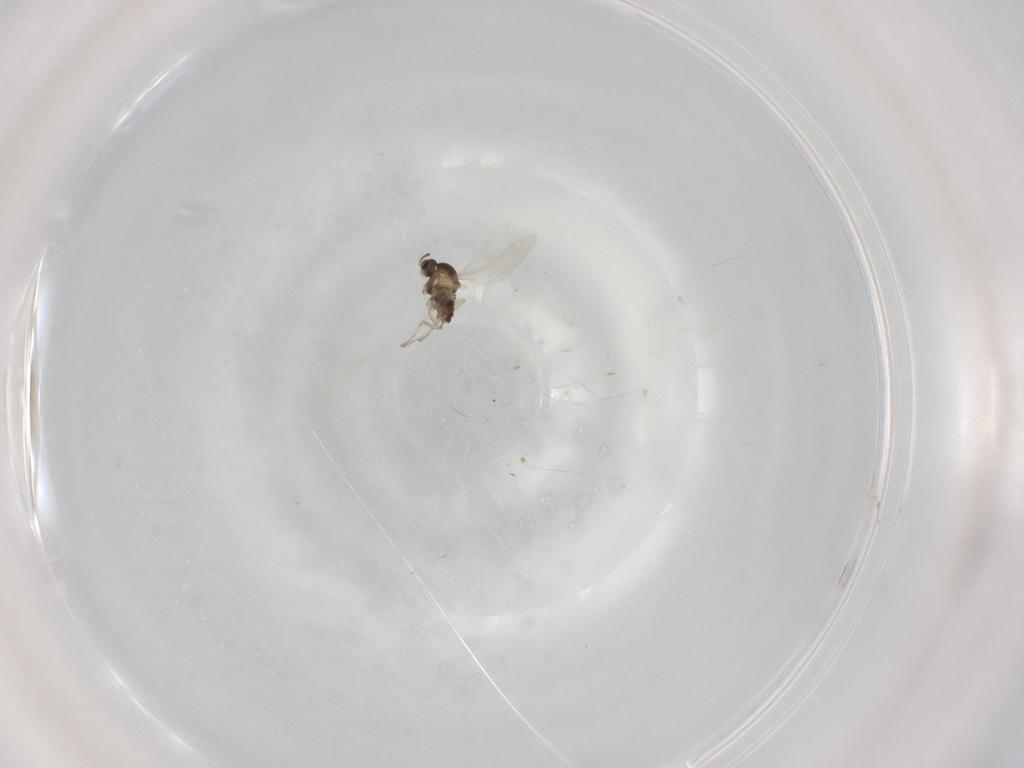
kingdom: Animalia
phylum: Arthropoda
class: Insecta
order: Diptera
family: Cecidomyiidae
